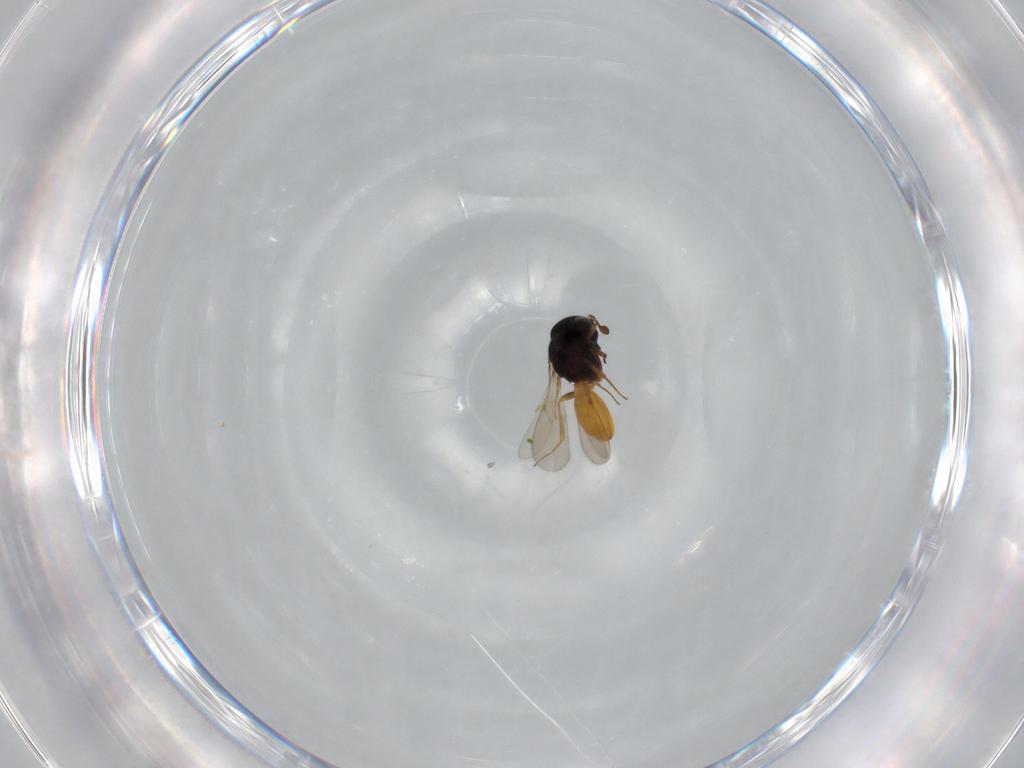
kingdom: Animalia
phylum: Arthropoda
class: Insecta
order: Hymenoptera
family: Scelionidae
